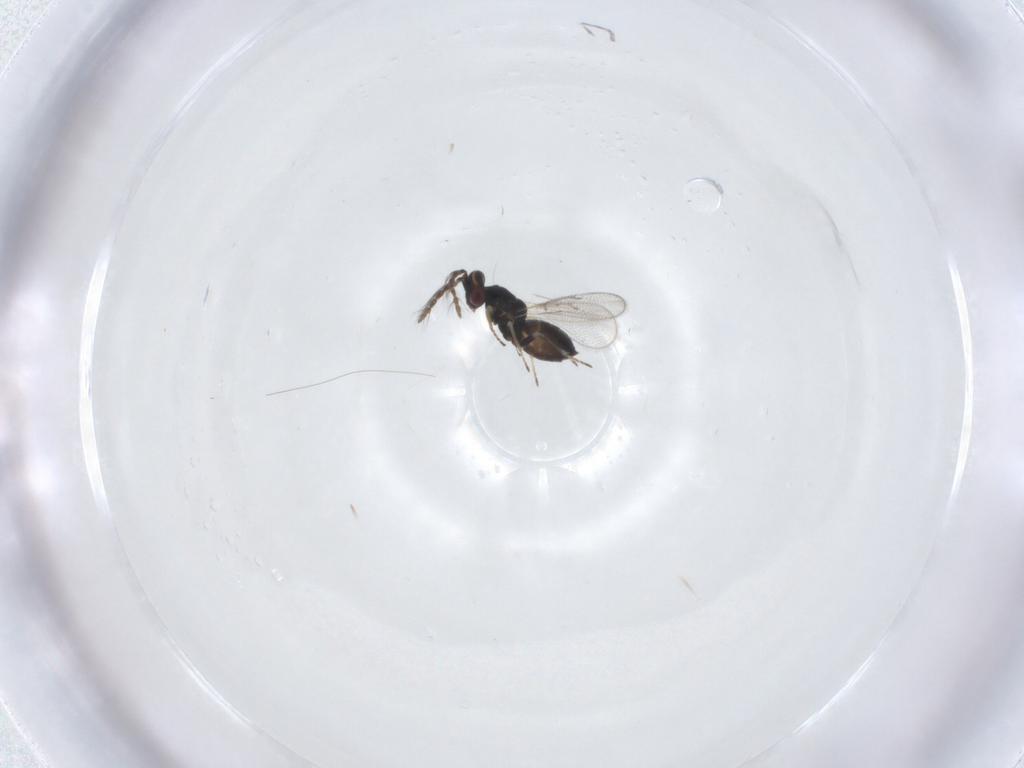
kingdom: Animalia
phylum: Arthropoda
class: Insecta
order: Hymenoptera
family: Eulophidae
